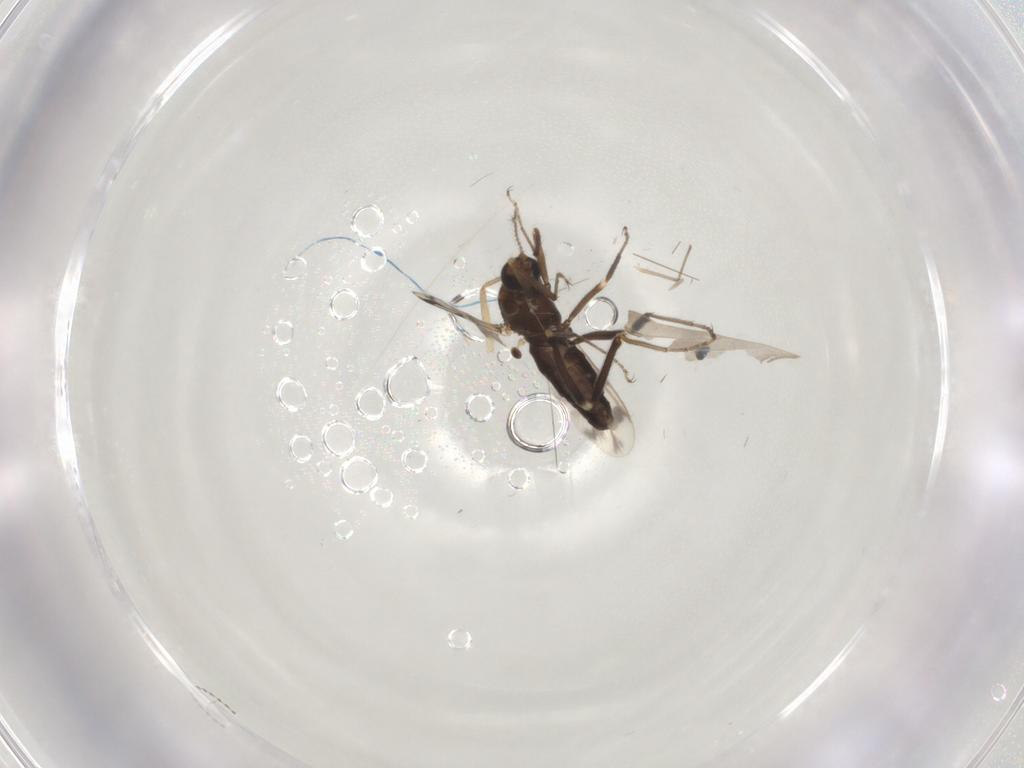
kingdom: Animalia
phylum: Arthropoda
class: Insecta
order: Diptera
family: Ceratopogonidae
